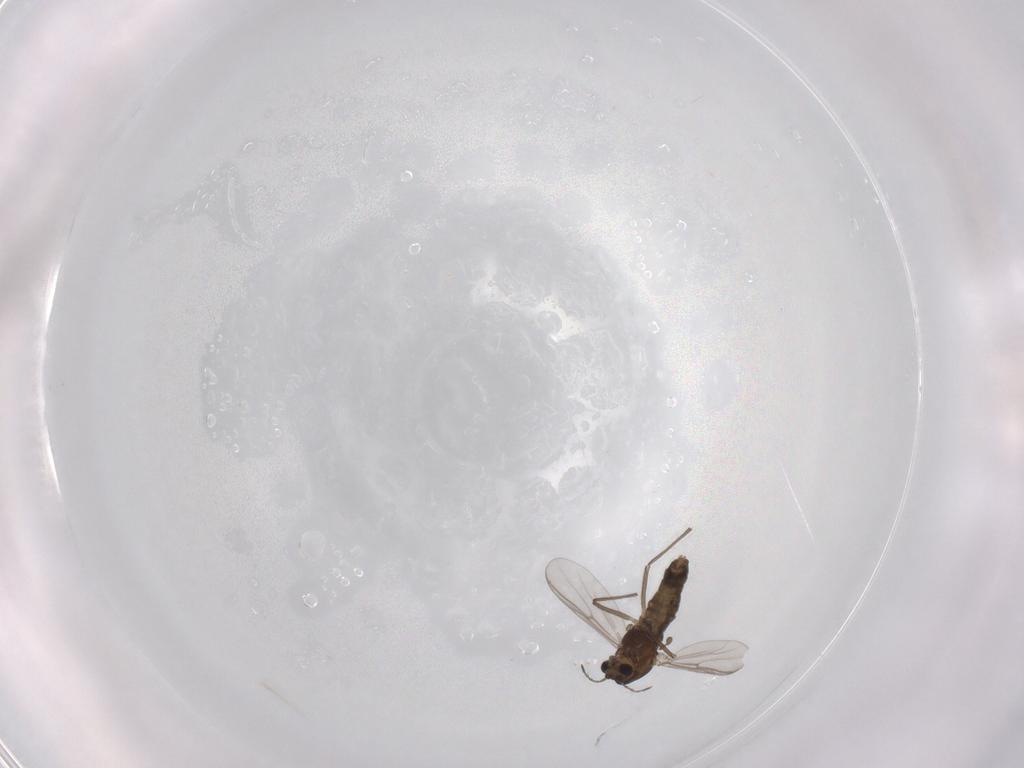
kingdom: Animalia
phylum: Arthropoda
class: Insecta
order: Diptera
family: Chironomidae
